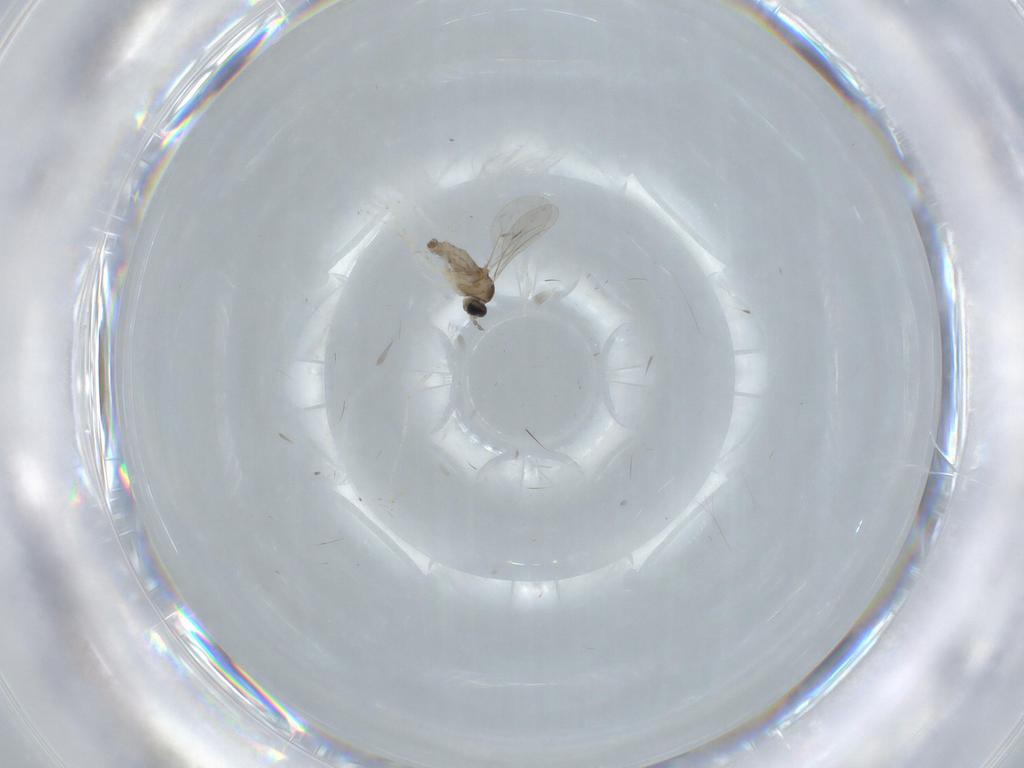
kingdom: Animalia
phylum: Arthropoda
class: Insecta
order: Diptera
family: Cecidomyiidae
